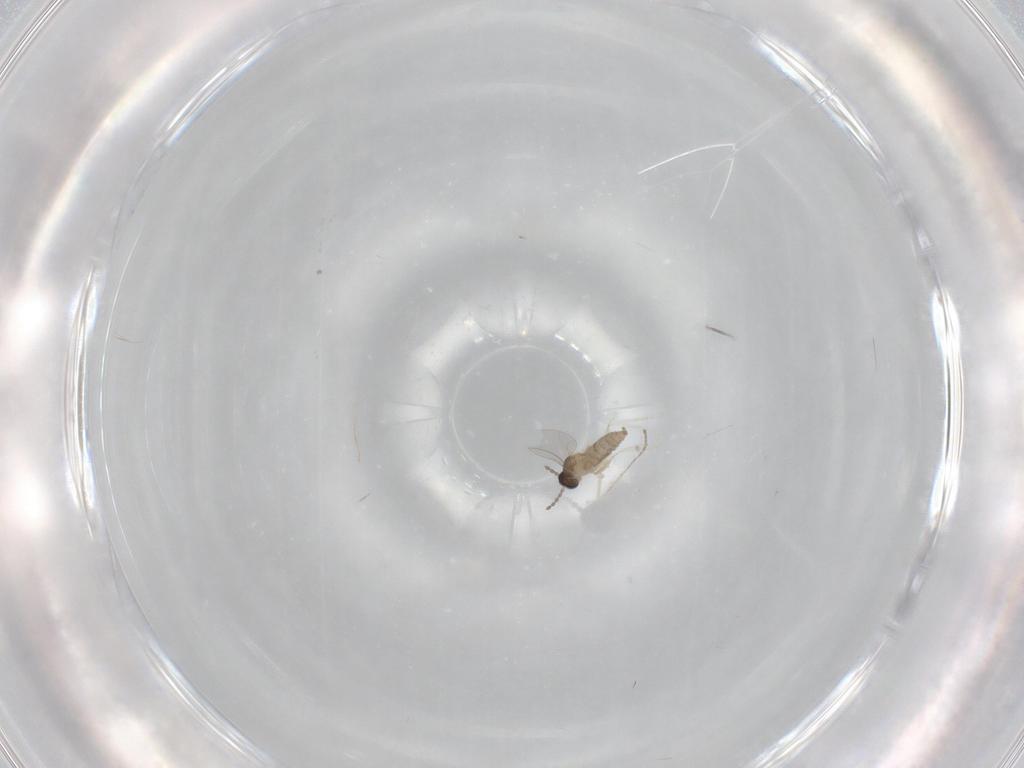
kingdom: Animalia
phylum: Arthropoda
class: Insecta
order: Diptera
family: Cecidomyiidae
